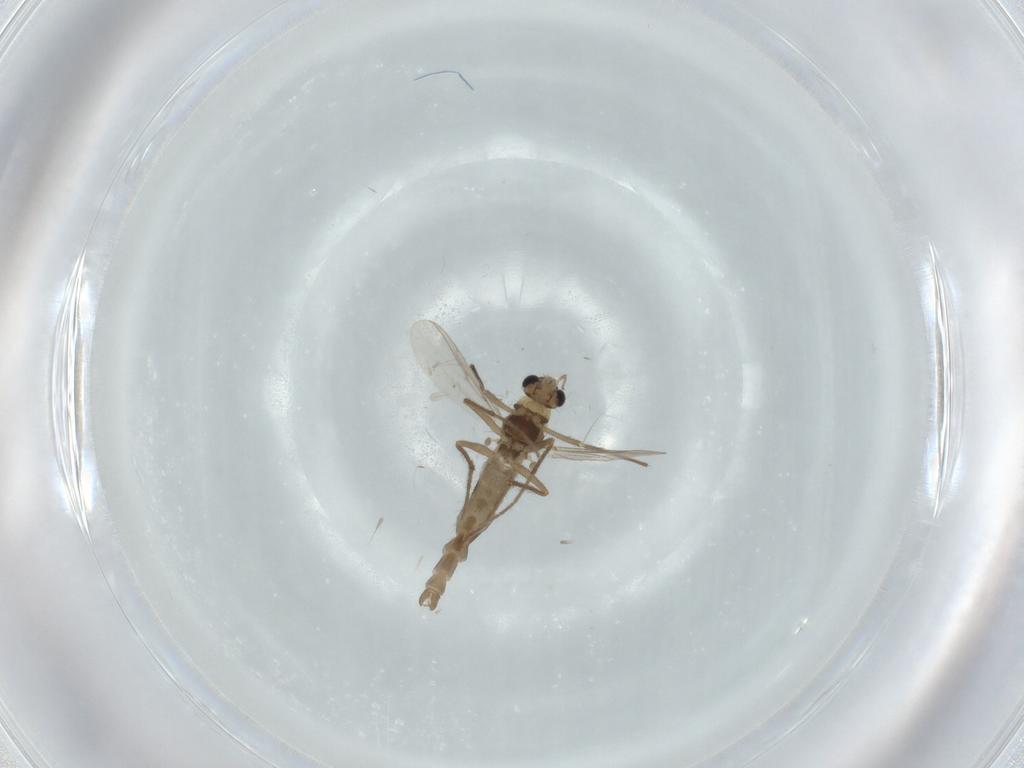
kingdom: Animalia
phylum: Arthropoda
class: Insecta
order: Diptera
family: Chironomidae
